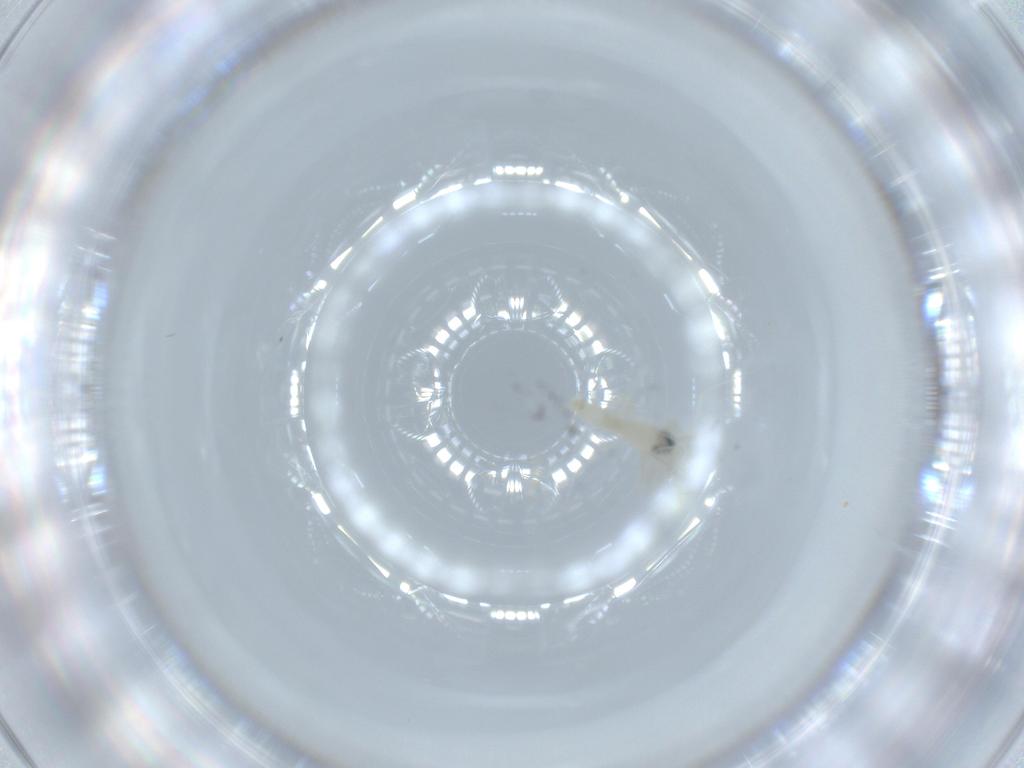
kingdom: Animalia
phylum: Arthropoda
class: Insecta
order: Diptera
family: Cecidomyiidae
